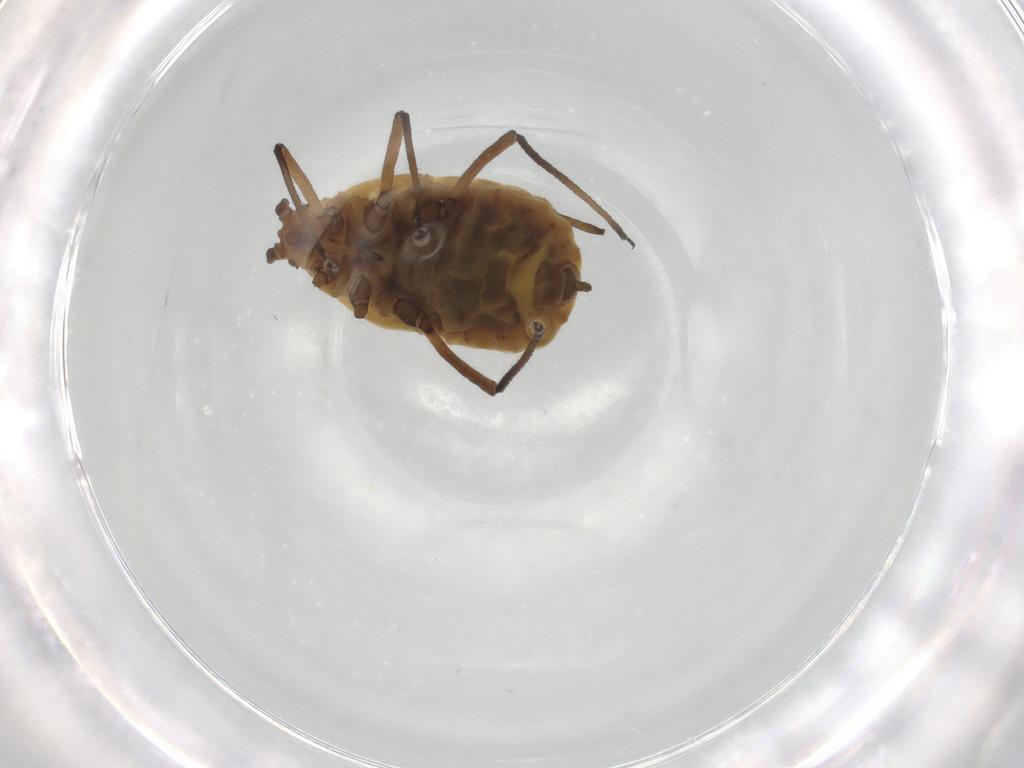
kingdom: Animalia
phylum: Arthropoda
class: Insecta
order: Hemiptera
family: Aphididae
